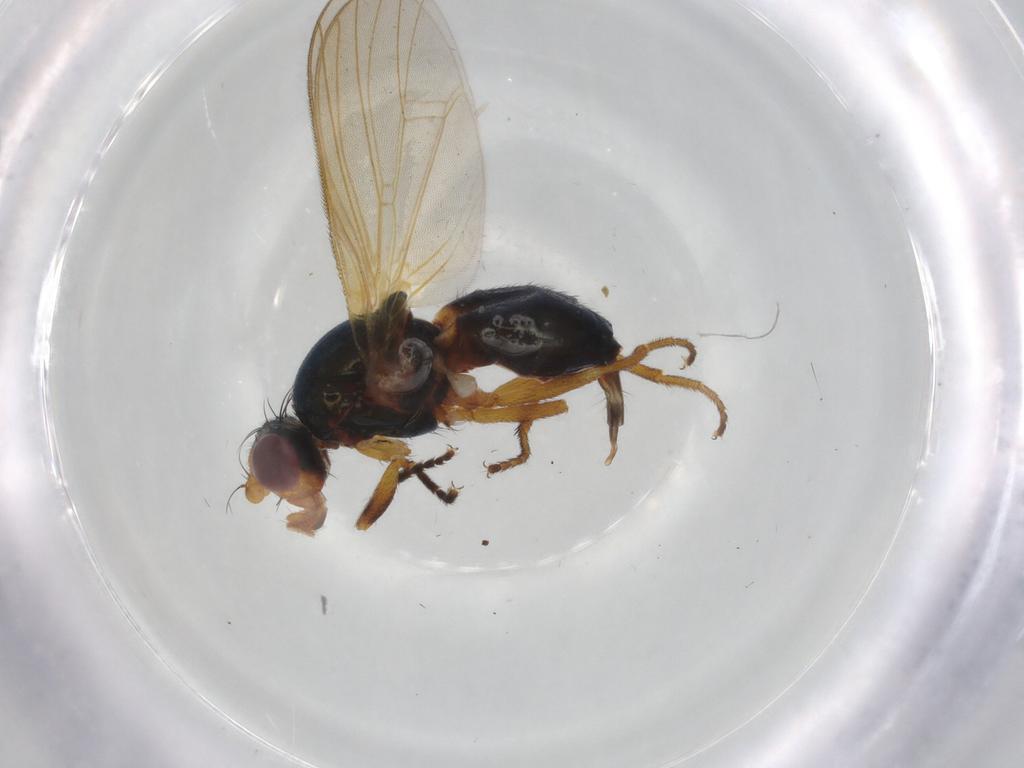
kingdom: Animalia
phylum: Arthropoda
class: Insecta
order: Diptera
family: Piophilidae
